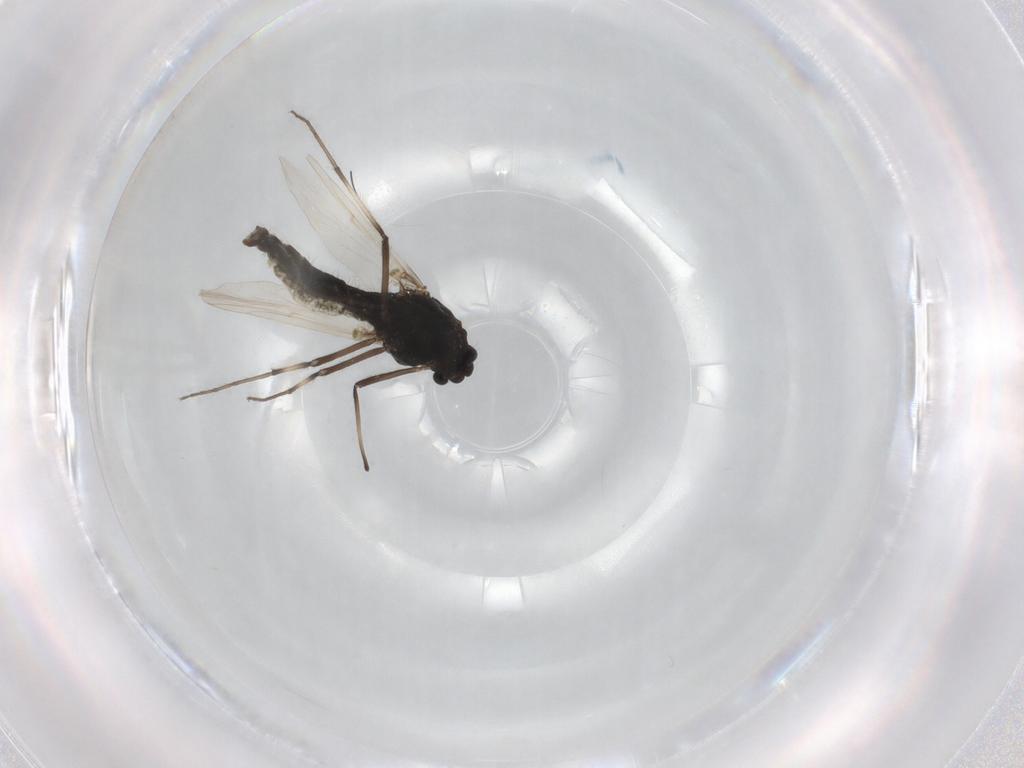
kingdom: Animalia
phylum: Arthropoda
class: Insecta
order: Diptera
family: Chironomidae
